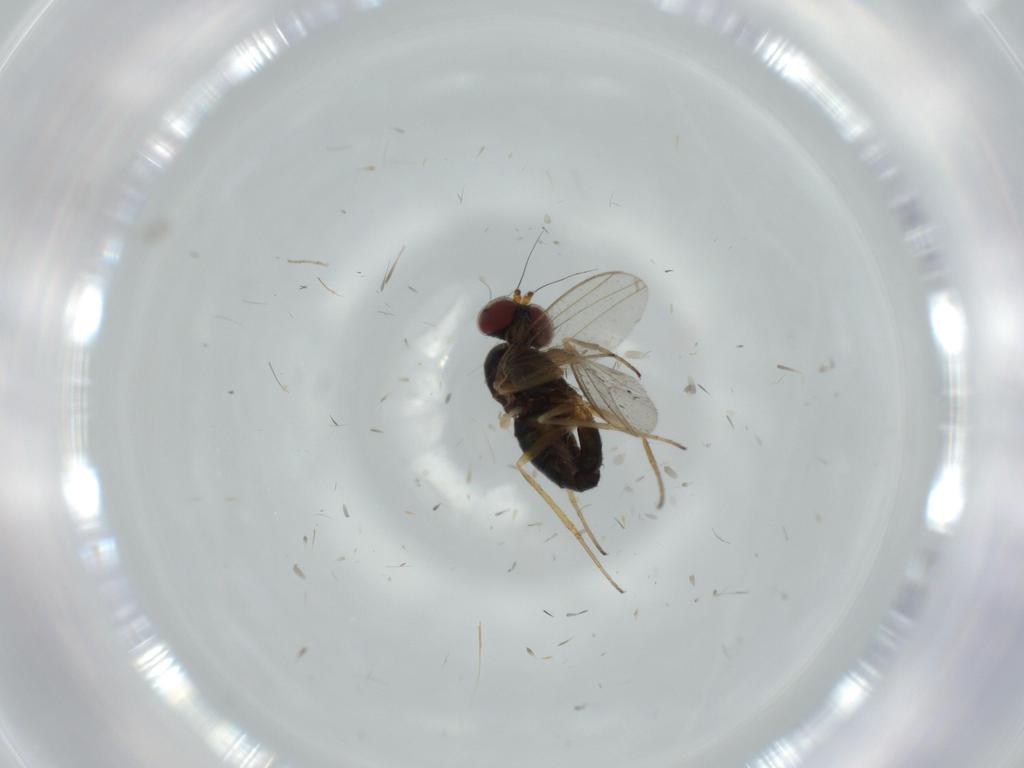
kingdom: Animalia
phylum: Arthropoda
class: Insecta
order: Diptera
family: Dolichopodidae
